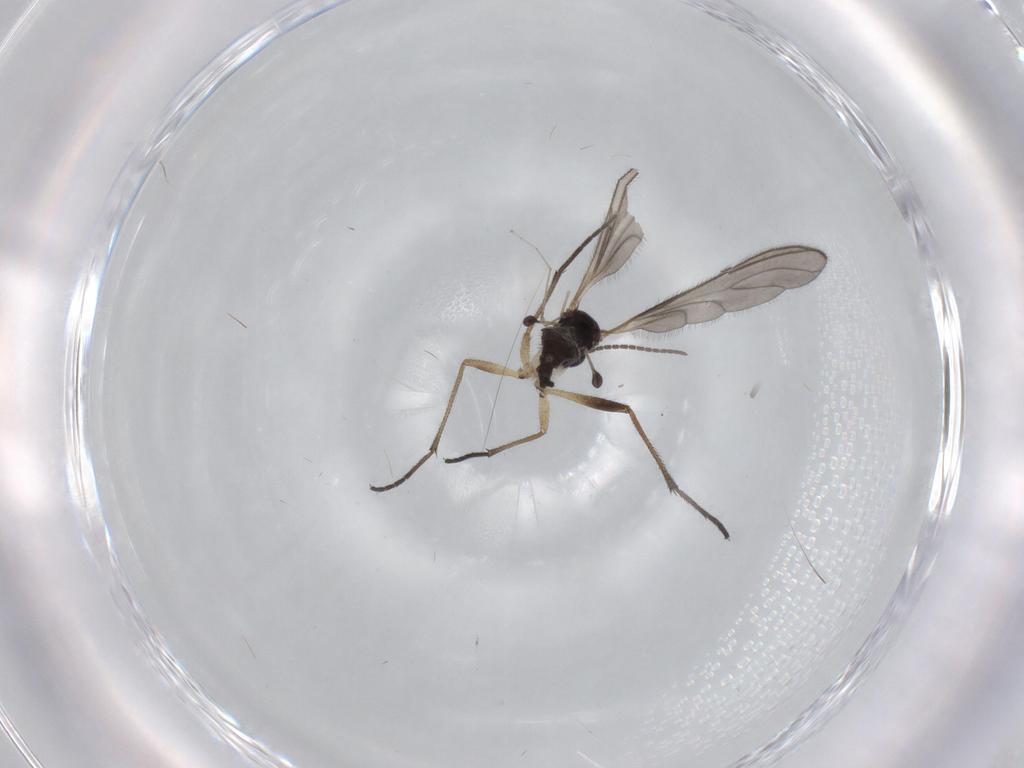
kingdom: Animalia
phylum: Arthropoda
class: Insecta
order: Diptera
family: Sciaridae
